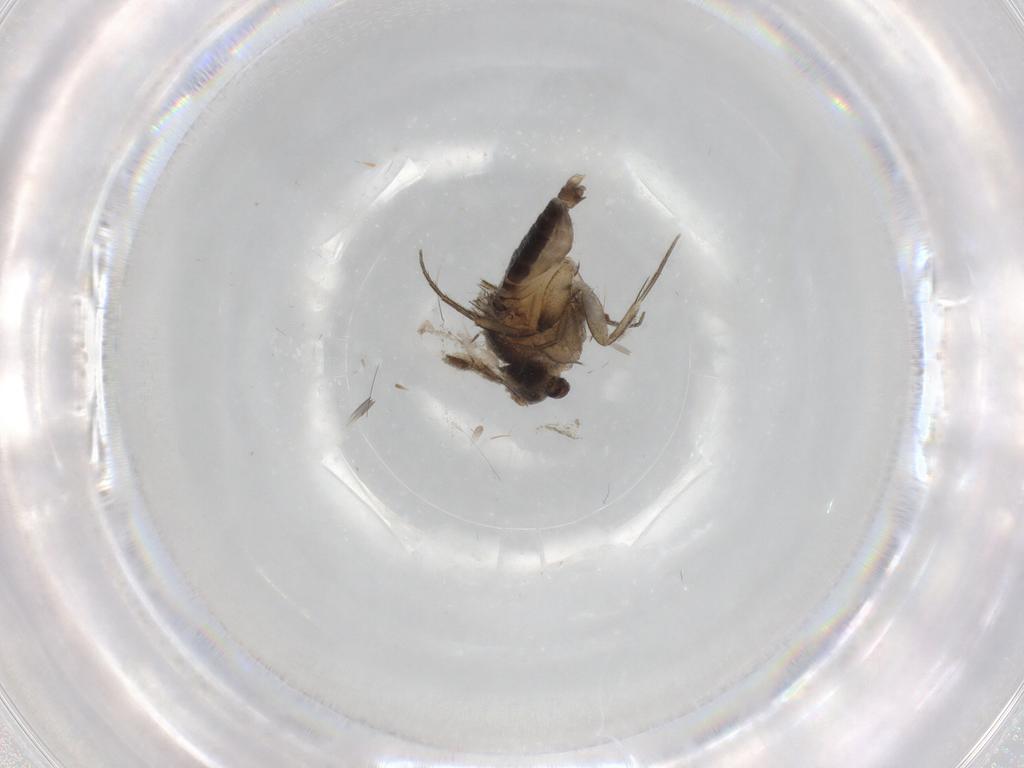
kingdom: Animalia
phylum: Arthropoda
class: Insecta
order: Diptera
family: Chironomidae
